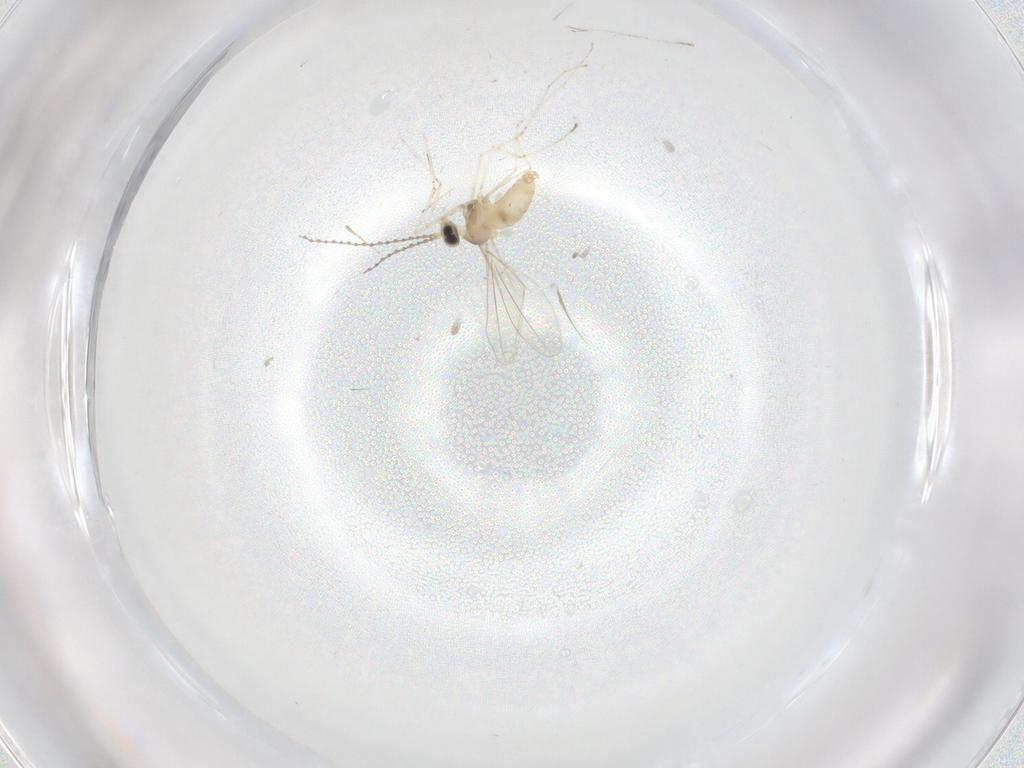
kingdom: Animalia
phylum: Arthropoda
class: Insecta
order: Diptera
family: Cecidomyiidae
